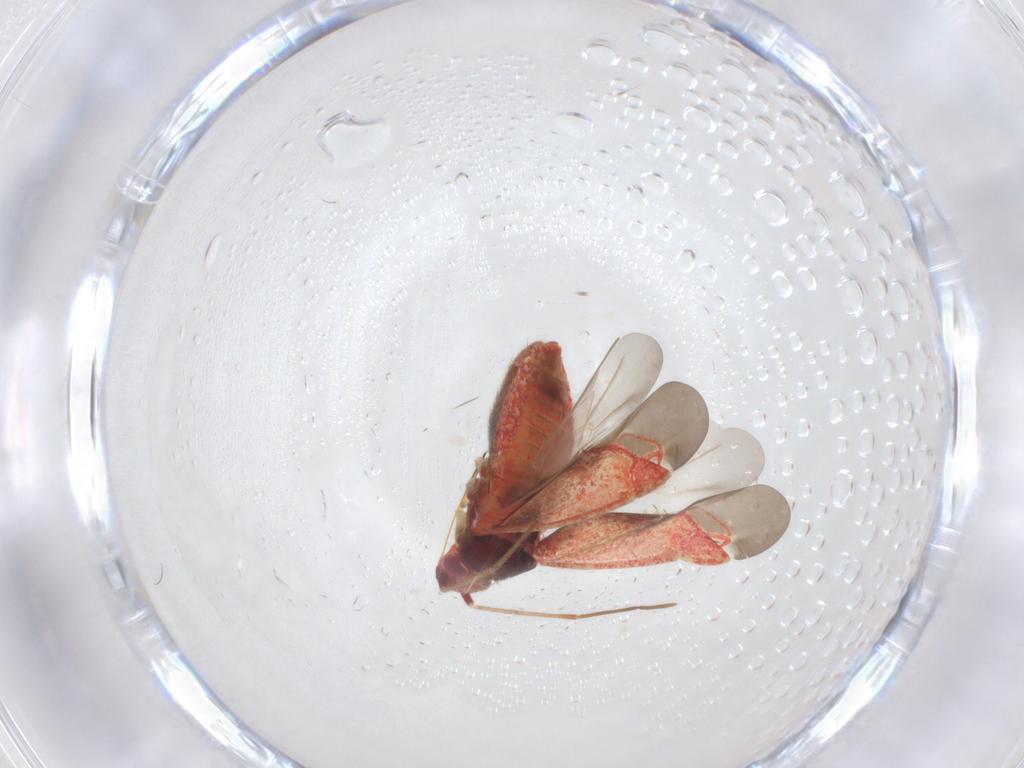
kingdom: Animalia
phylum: Arthropoda
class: Insecta
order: Hemiptera
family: Miridae
